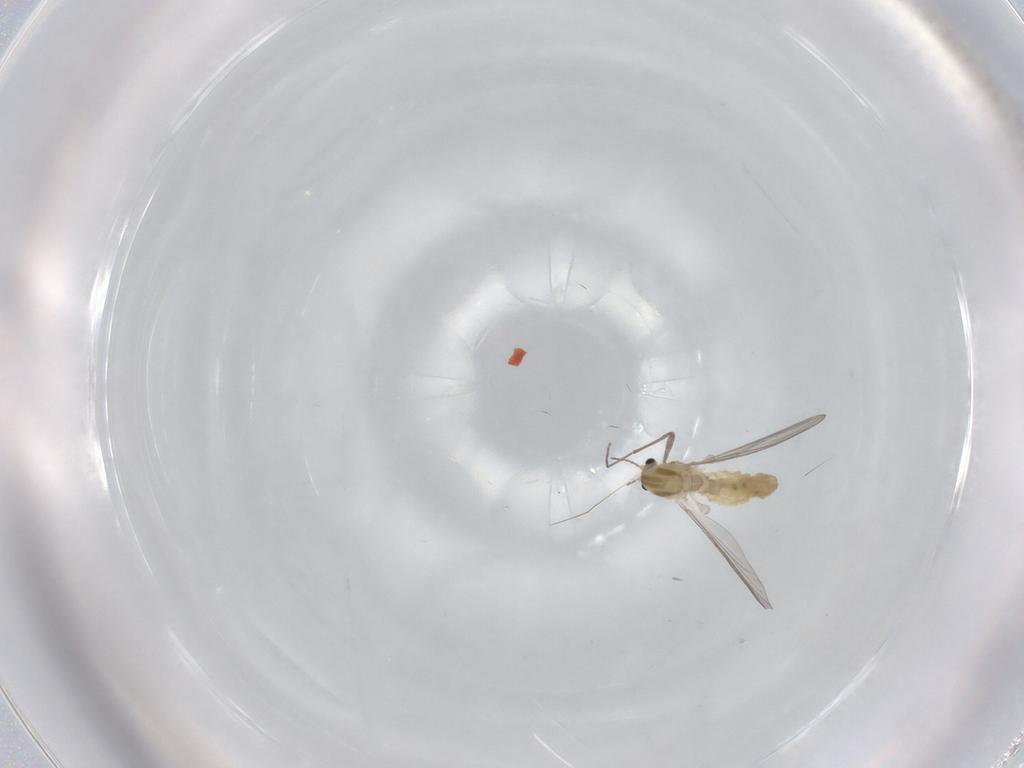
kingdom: Animalia
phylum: Arthropoda
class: Insecta
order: Diptera
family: Chironomidae
